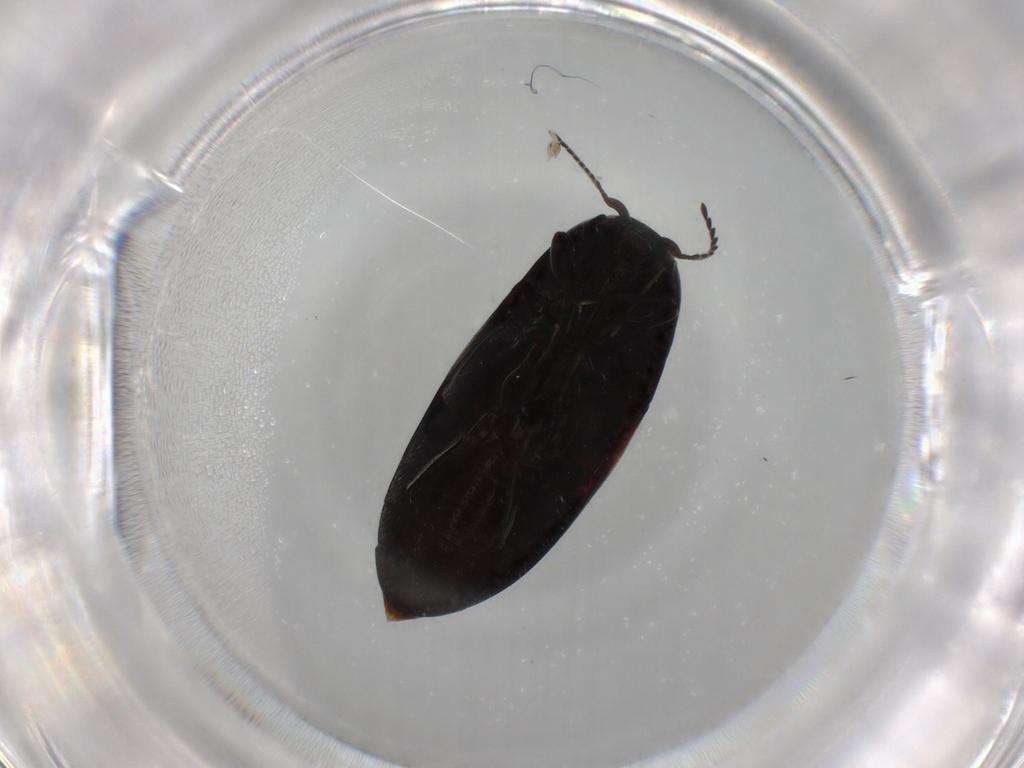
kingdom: Animalia
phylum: Arthropoda
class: Insecta
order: Coleoptera
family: Elateridae
